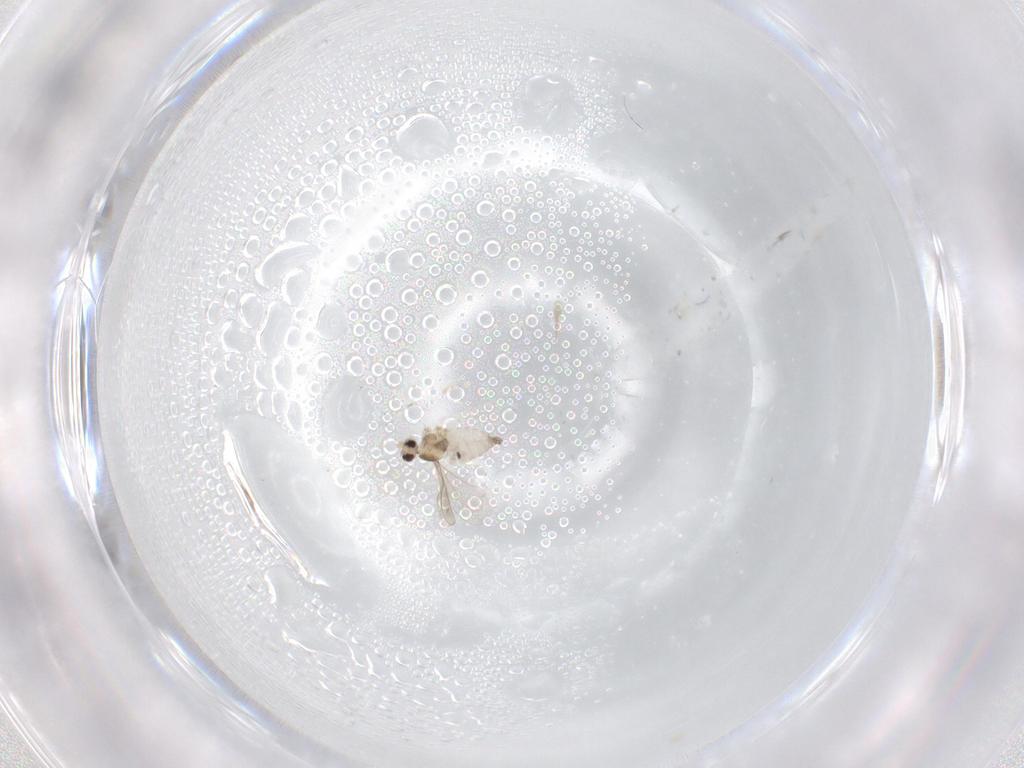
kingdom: Animalia
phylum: Arthropoda
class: Insecta
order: Diptera
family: Cecidomyiidae
